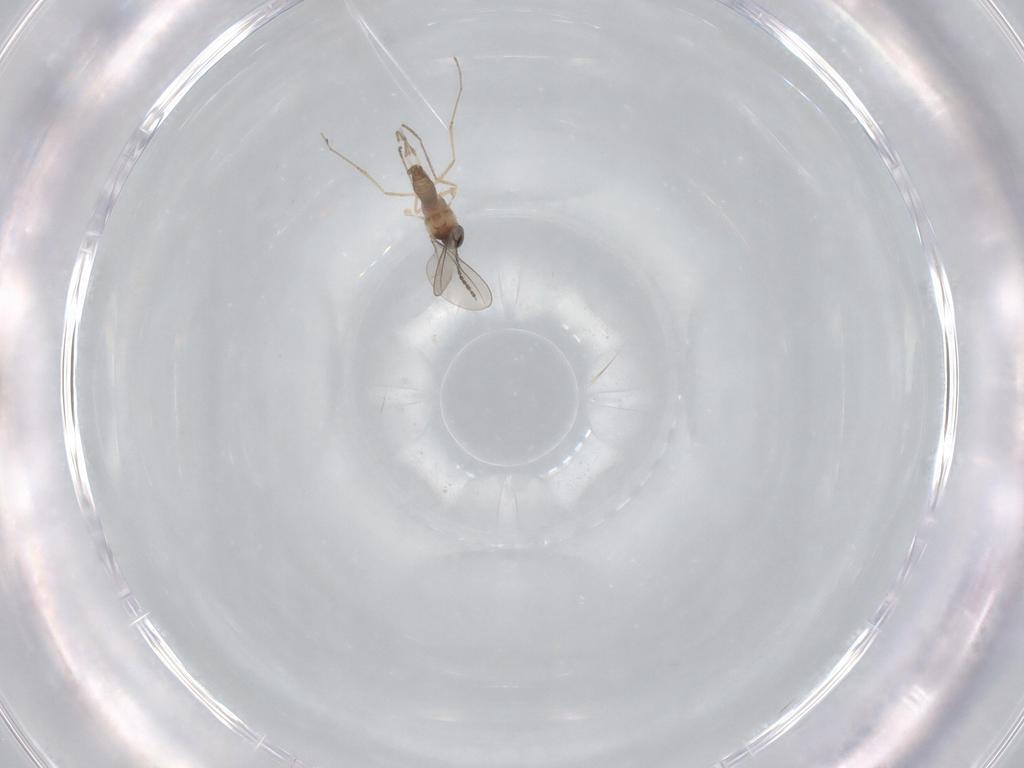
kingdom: Animalia
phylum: Arthropoda
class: Insecta
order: Diptera
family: Cecidomyiidae
